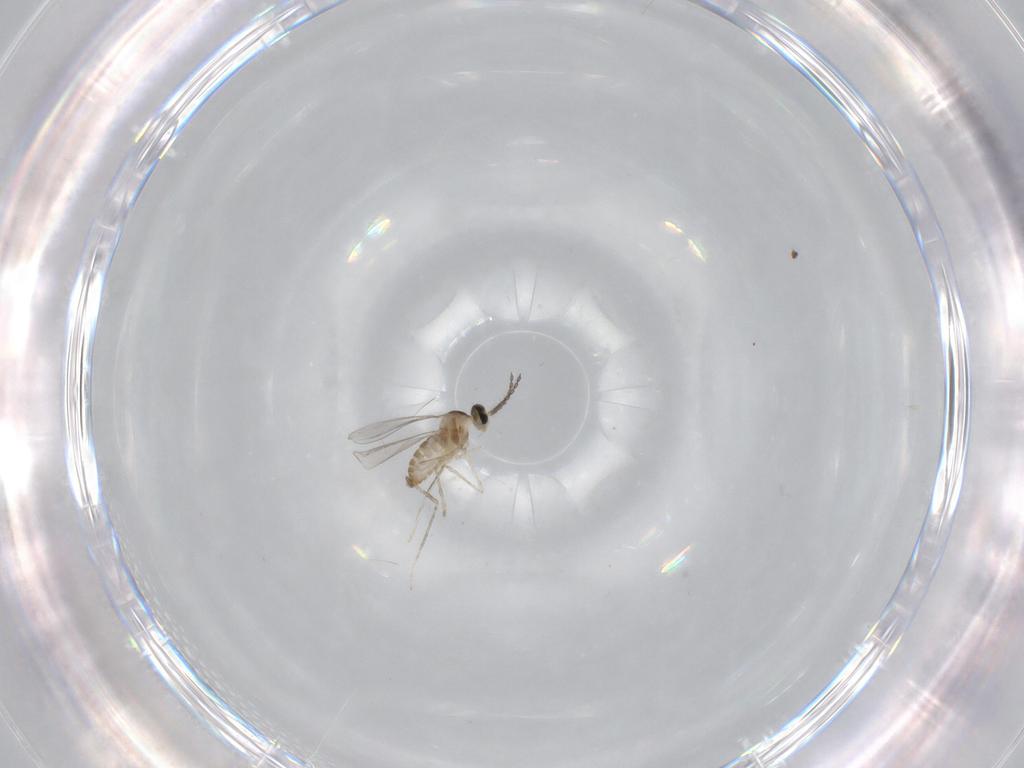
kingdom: Animalia
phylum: Arthropoda
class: Insecta
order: Diptera
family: Cecidomyiidae
